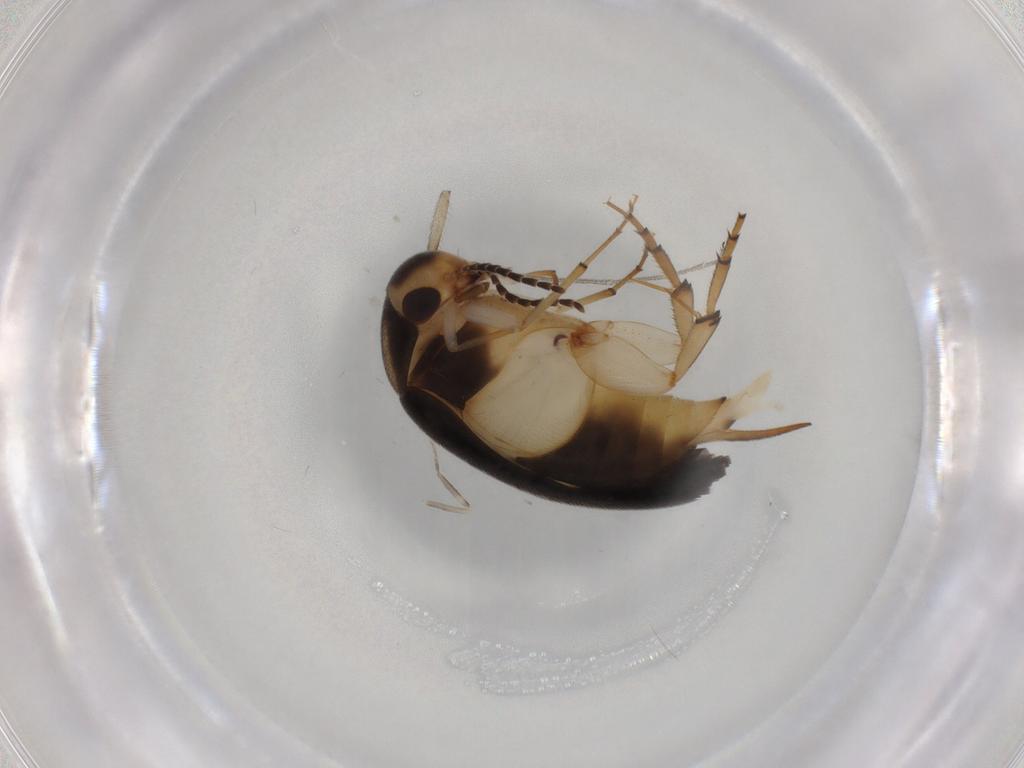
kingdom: Animalia
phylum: Arthropoda
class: Insecta
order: Coleoptera
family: Mordellidae
